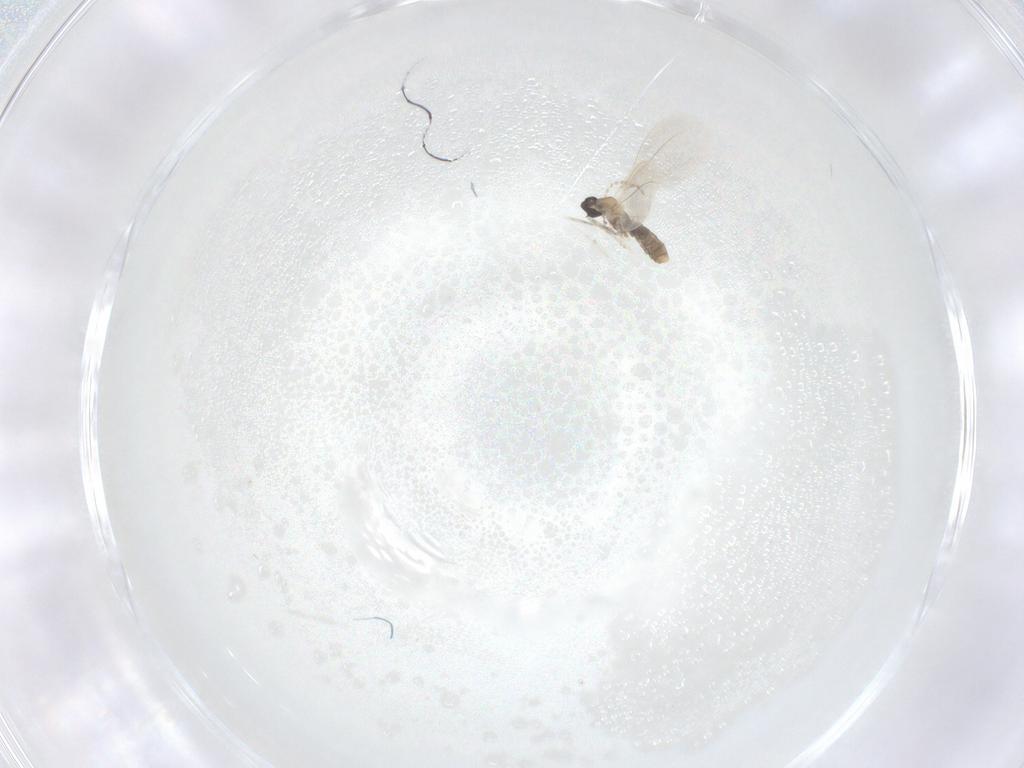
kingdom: Animalia
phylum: Arthropoda
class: Insecta
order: Diptera
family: Cecidomyiidae
